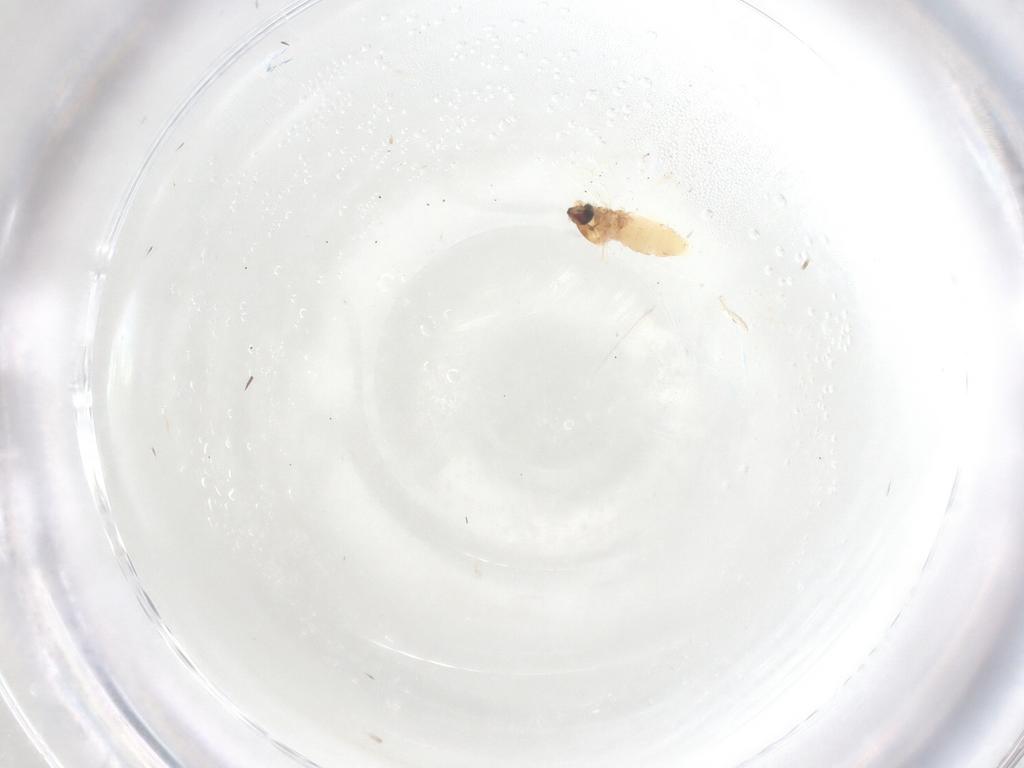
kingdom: Animalia
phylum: Arthropoda
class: Insecta
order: Diptera
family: Cecidomyiidae
